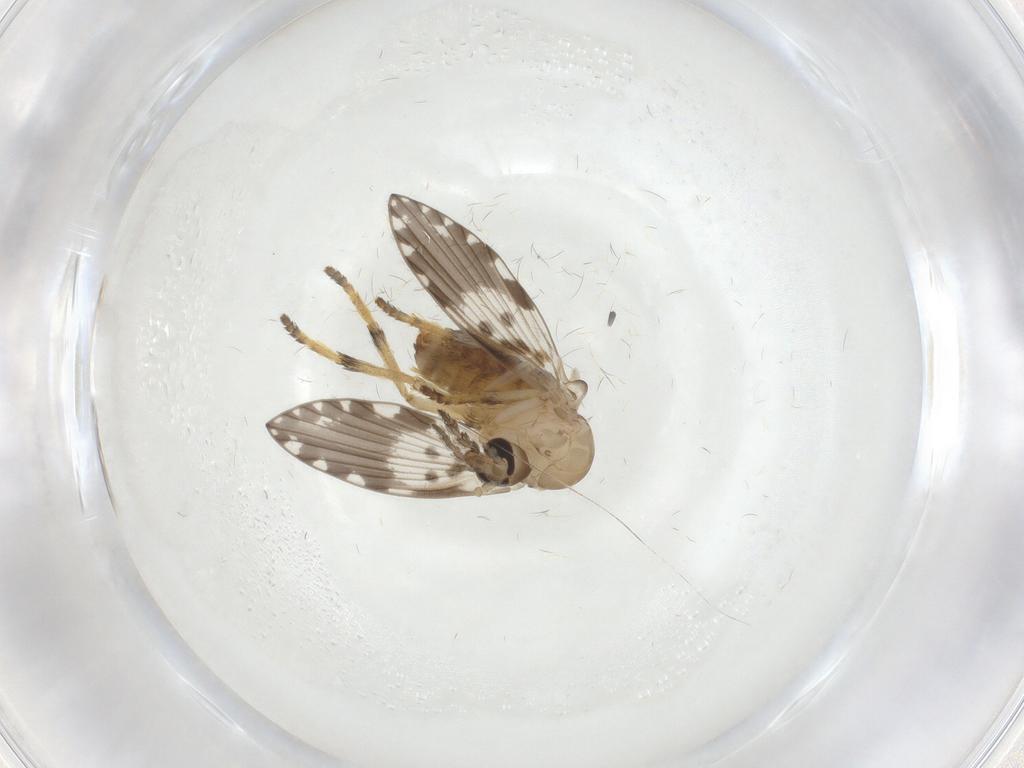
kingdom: Animalia
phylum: Arthropoda
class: Insecta
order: Diptera
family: Psychodidae
